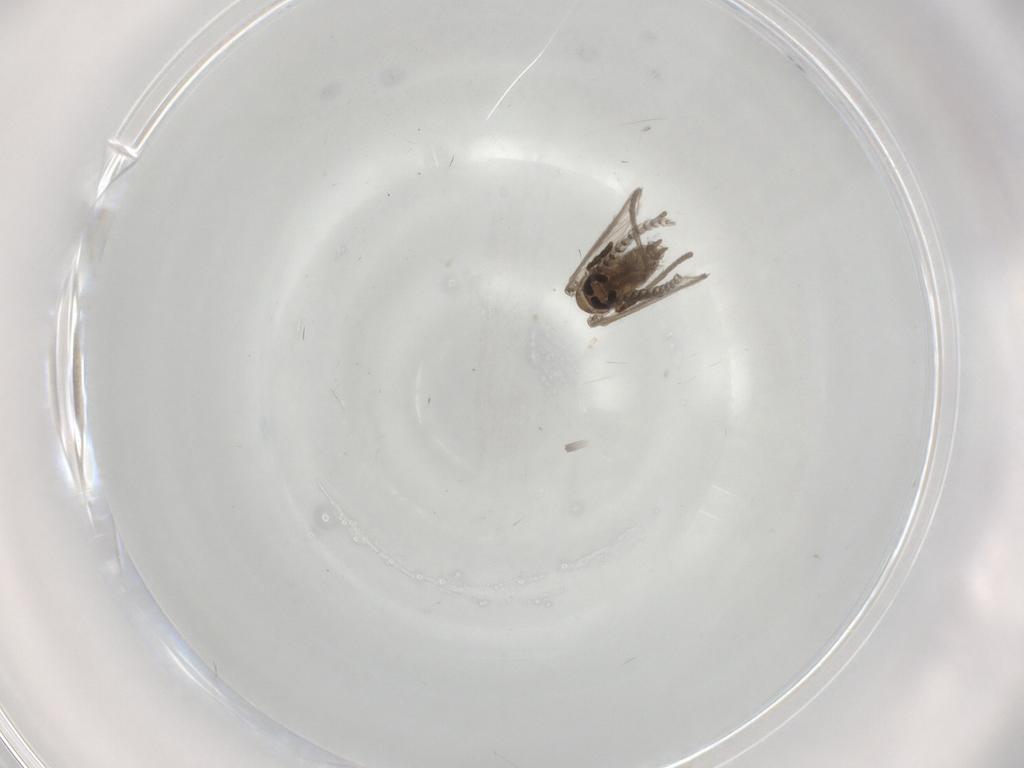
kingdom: Animalia
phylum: Arthropoda
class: Insecta
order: Diptera
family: Psychodidae
